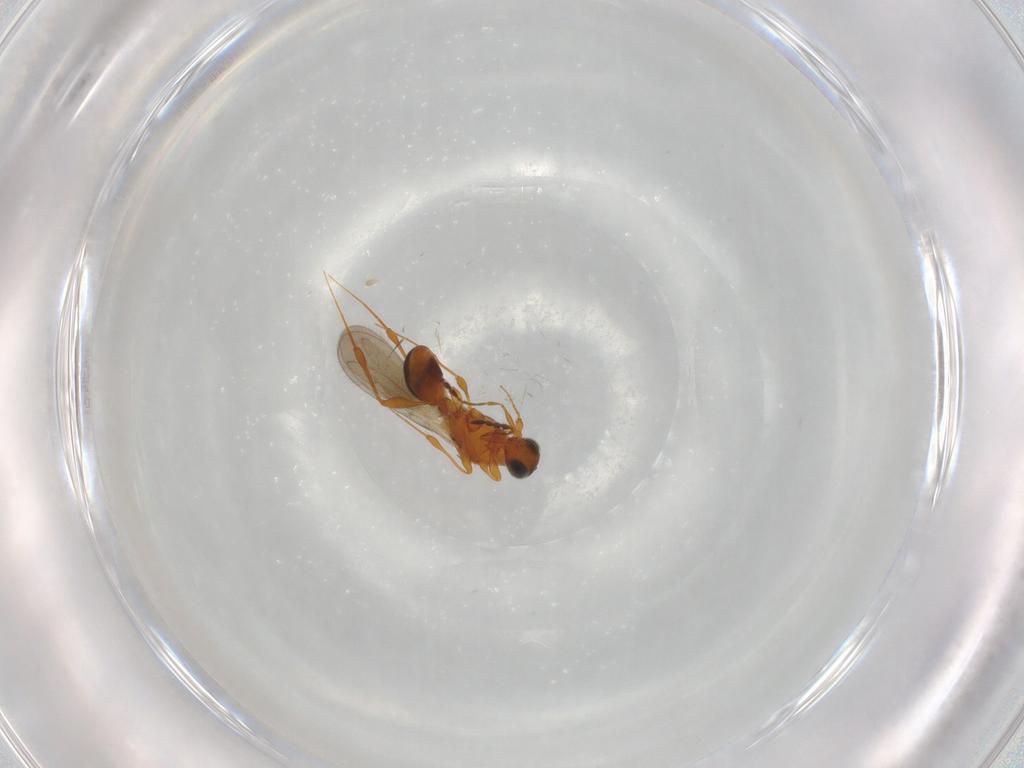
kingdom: Animalia
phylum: Arthropoda
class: Insecta
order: Hymenoptera
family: Platygastridae
